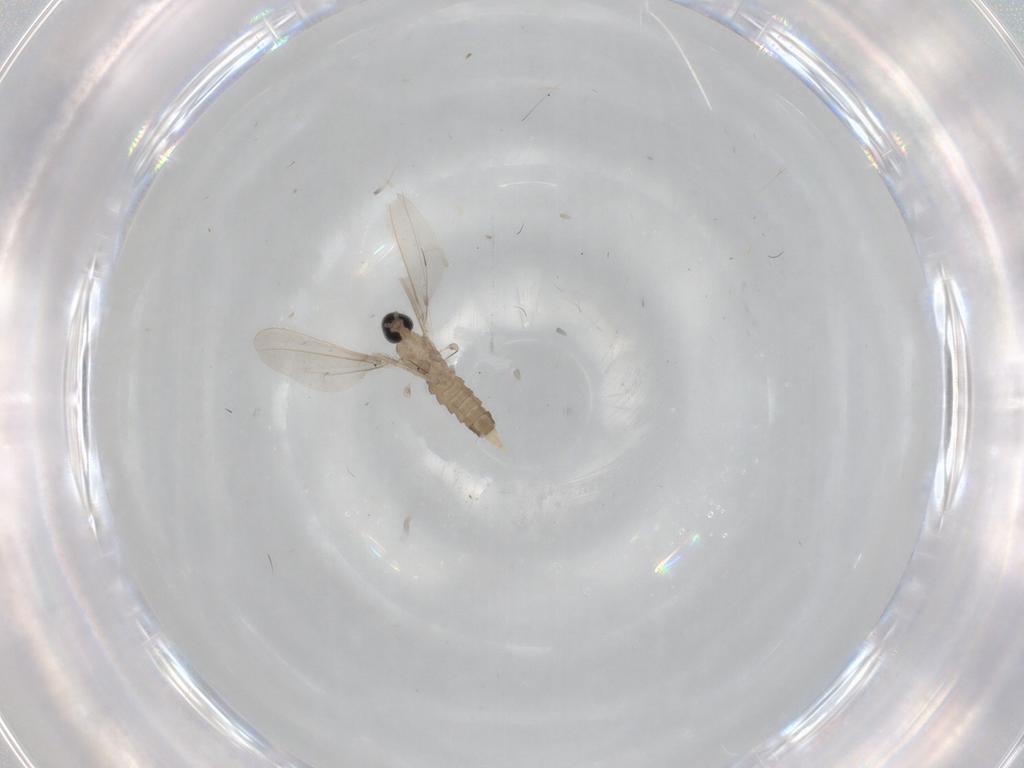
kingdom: Animalia
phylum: Arthropoda
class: Insecta
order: Diptera
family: Cecidomyiidae
